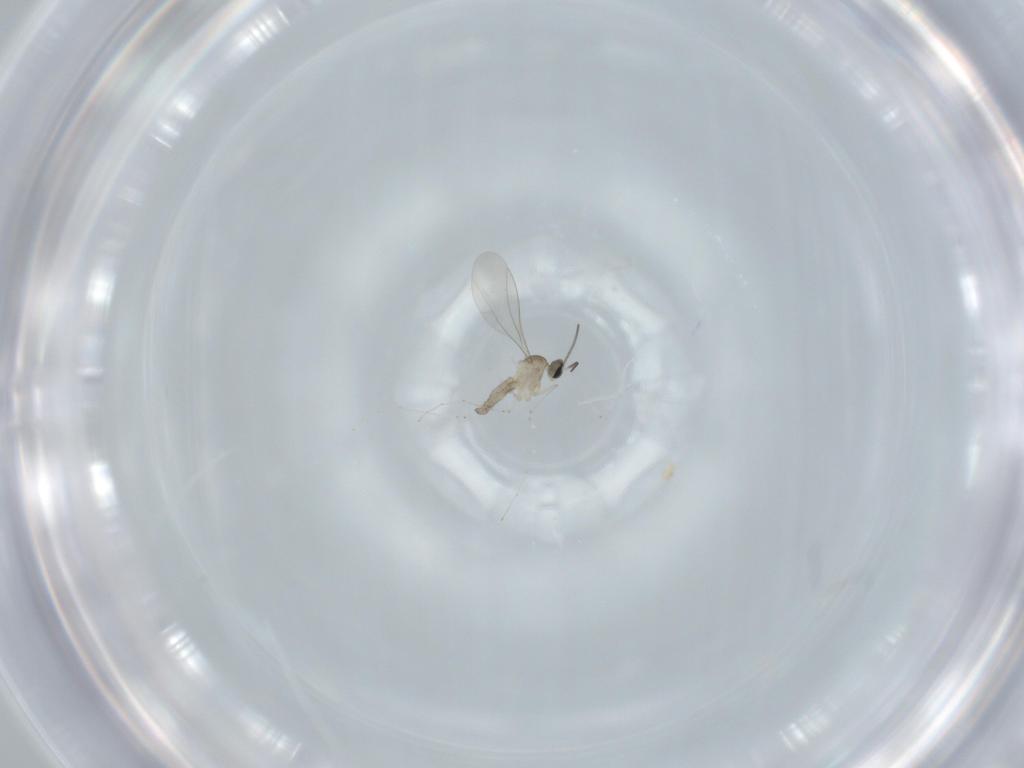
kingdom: Animalia
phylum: Arthropoda
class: Insecta
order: Diptera
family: Cecidomyiidae
